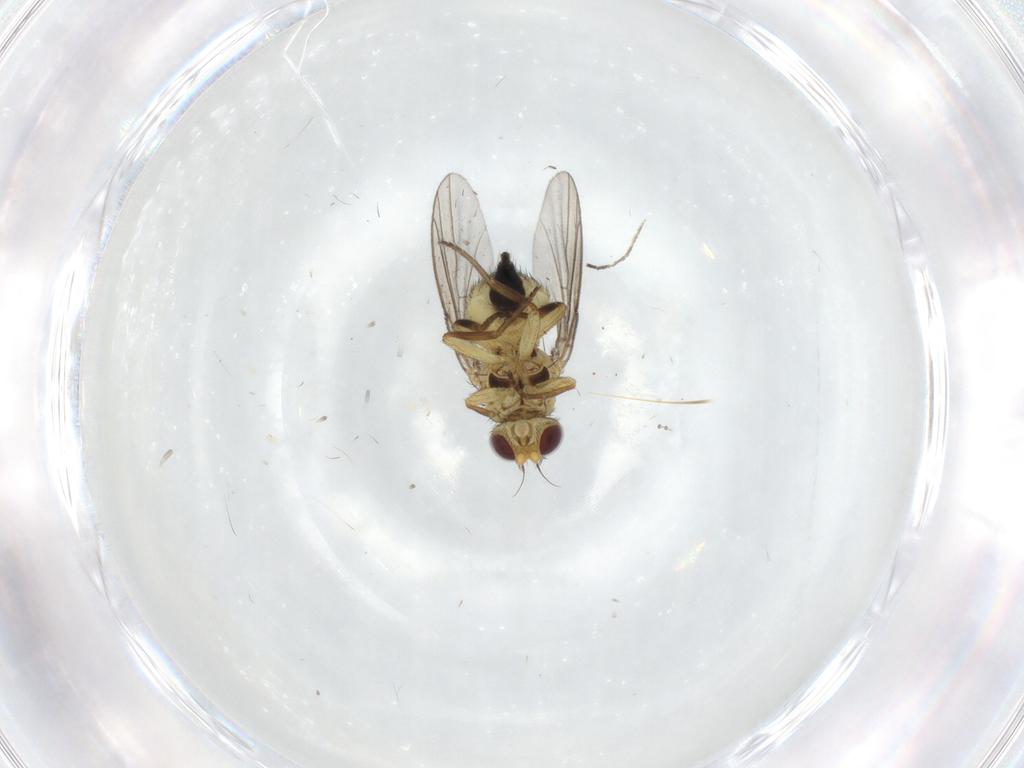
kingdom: Animalia
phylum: Arthropoda
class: Insecta
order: Diptera
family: Agromyzidae
